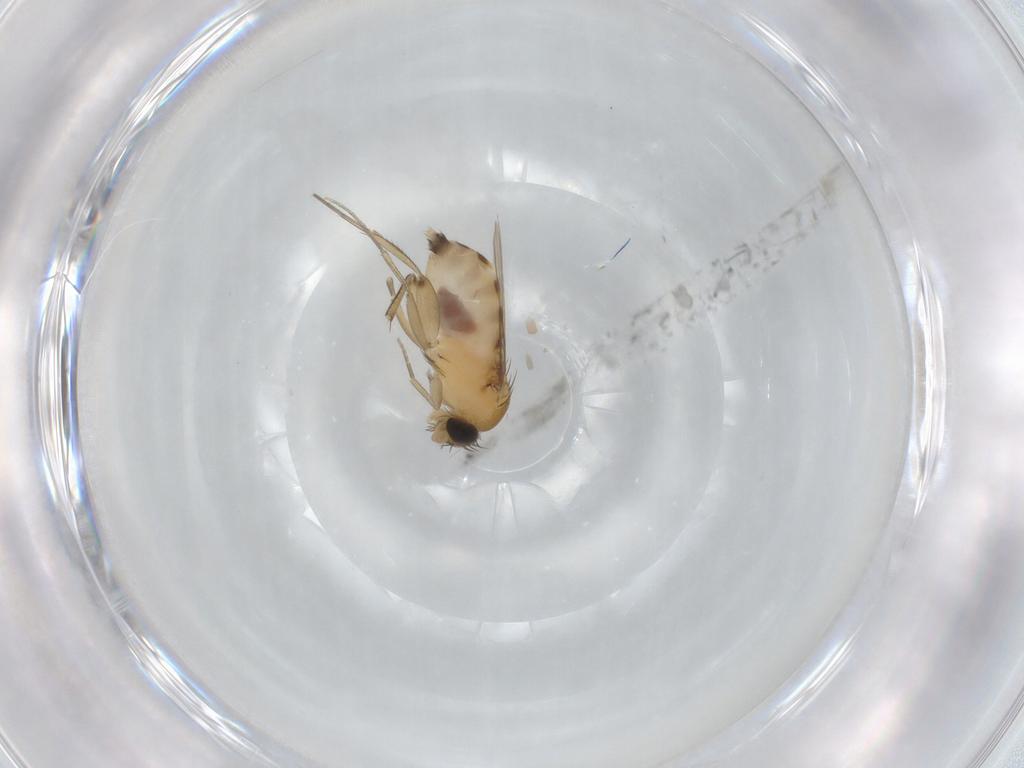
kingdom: Animalia
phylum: Arthropoda
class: Insecta
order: Diptera
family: Phoridae
